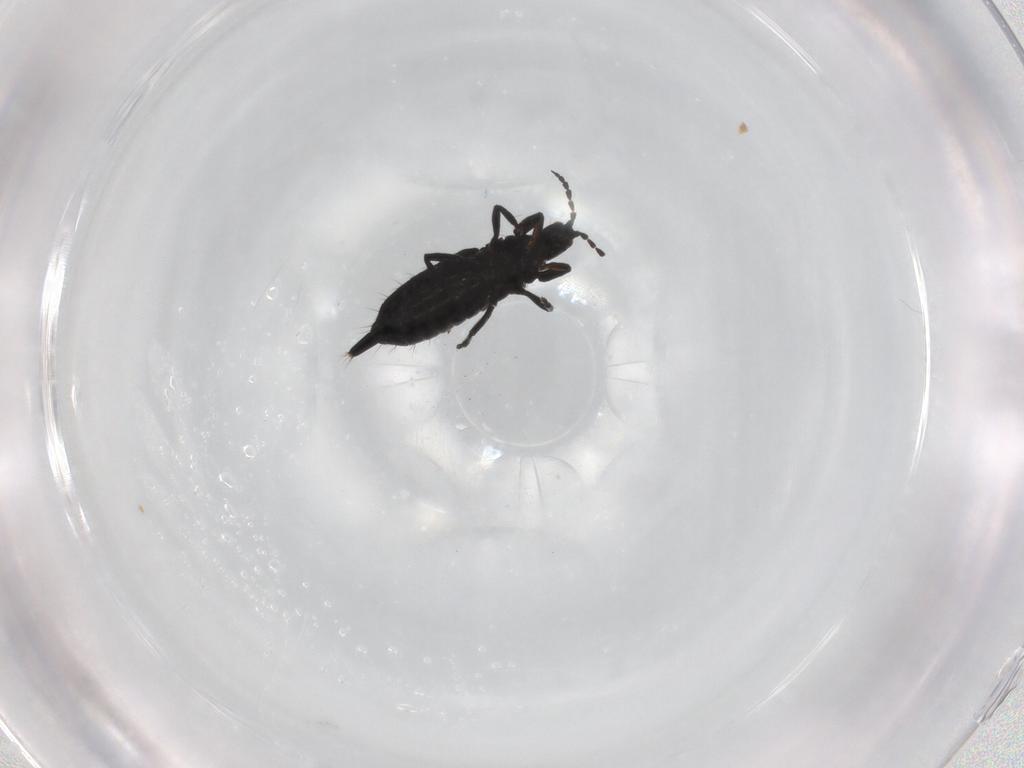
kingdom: Animalia
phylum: Arthropoda
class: Insecta
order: Thysanoptera
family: Phlaeothripidae
